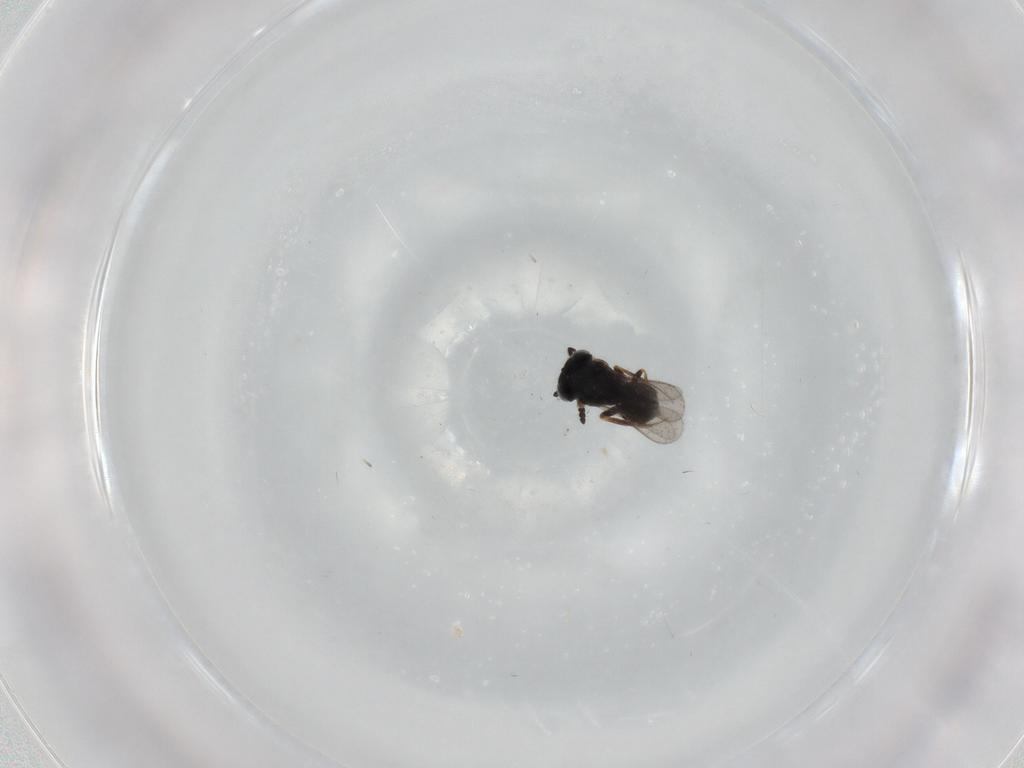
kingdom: Animalia
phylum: Arthropoda
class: Insecta
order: Hymenoptera
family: Scelionidae
